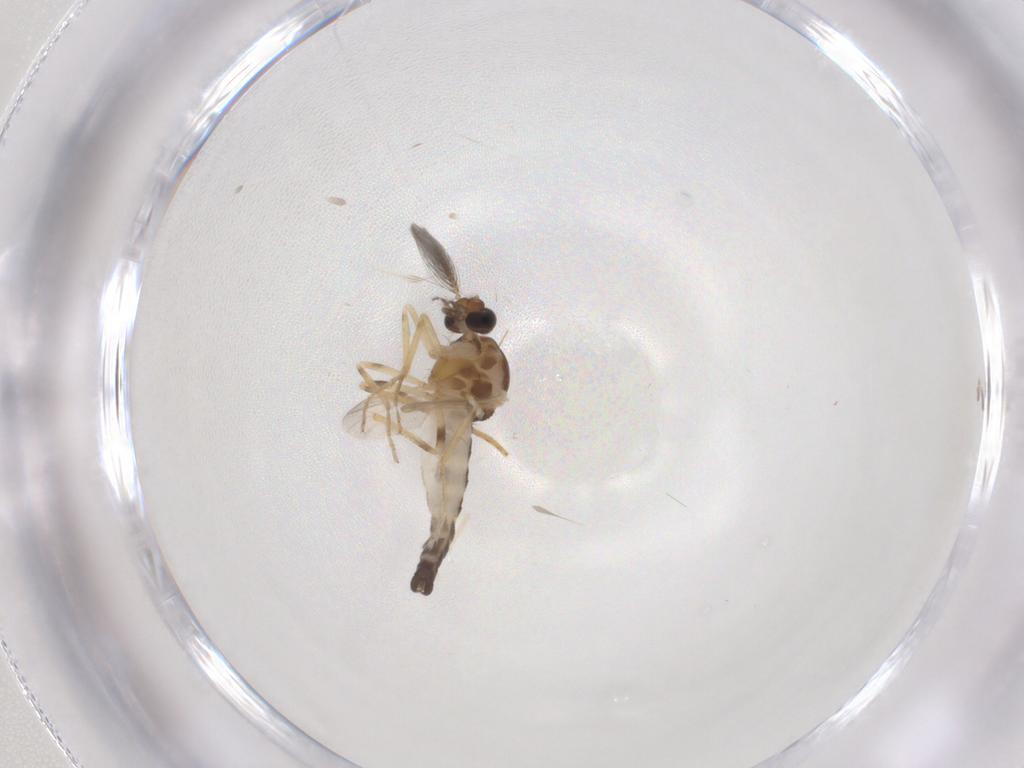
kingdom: Animalia
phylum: Arthropoda
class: Insecta
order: Diptera
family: Ceratopogonidae
